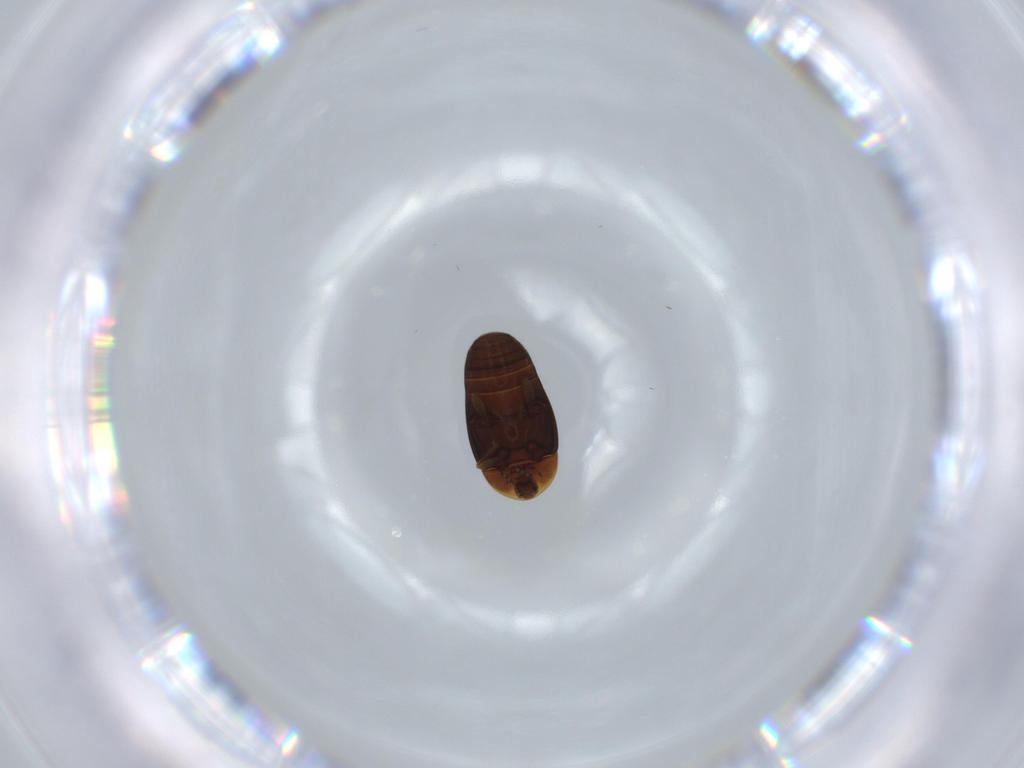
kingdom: Animalia
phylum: Arthropoda
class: Insecta
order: Coleoptera
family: Corylophidae
